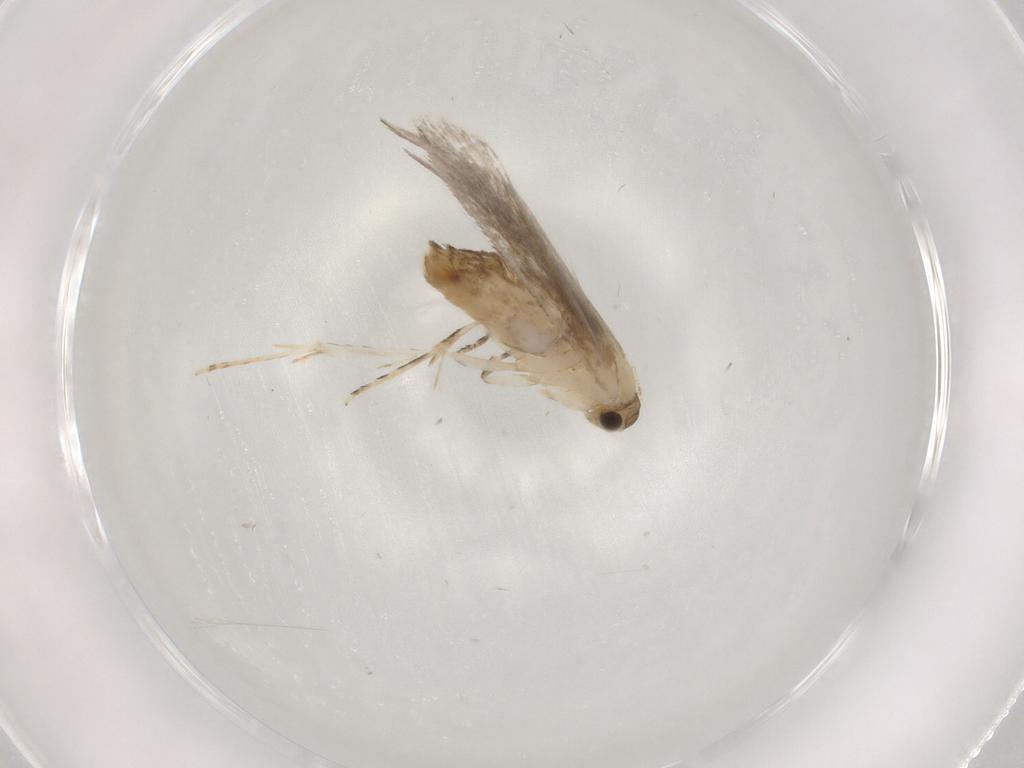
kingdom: Animalia
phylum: Arthropoda
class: Insecta
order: Lepidoptera
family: Tineidae
